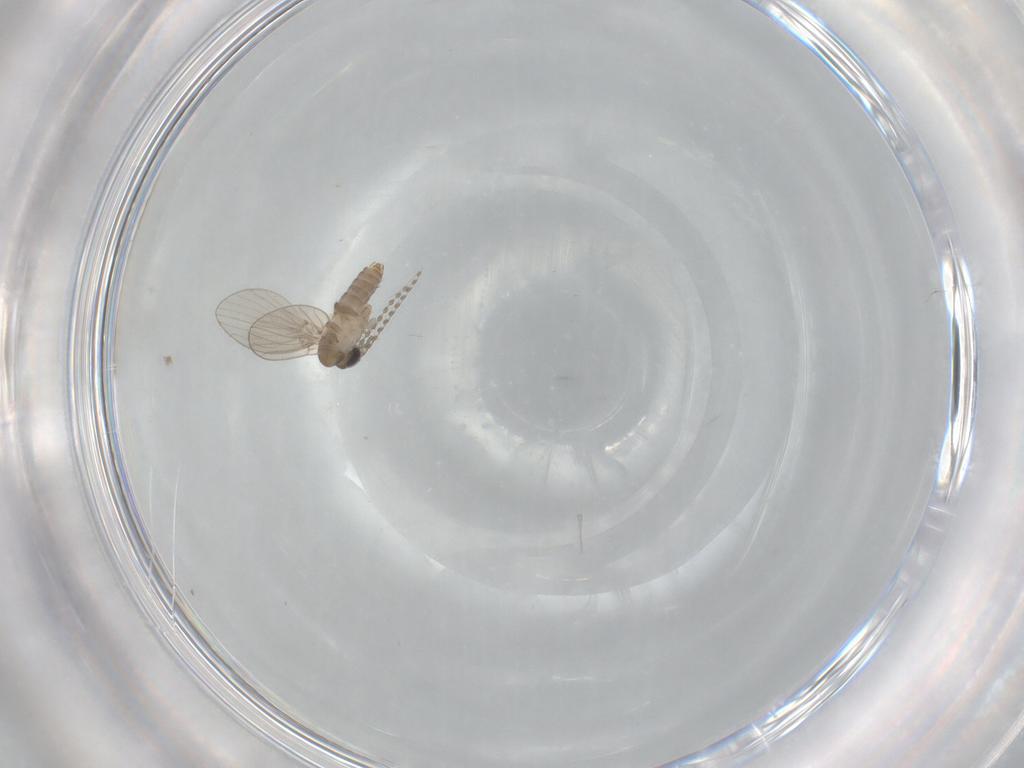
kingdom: Animalia
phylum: Arthropoda
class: Insecta
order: Diptera
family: Psychodidae
